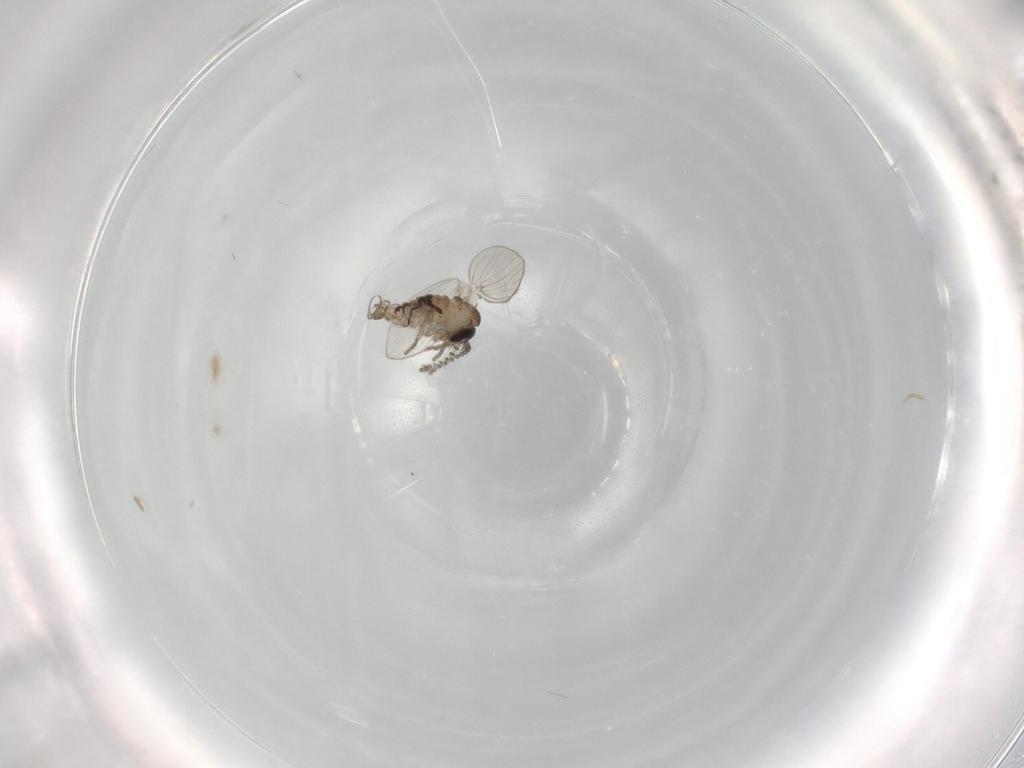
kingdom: Animalia
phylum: Arthropoda
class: Insecta
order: Diptera
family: Psychodidae
